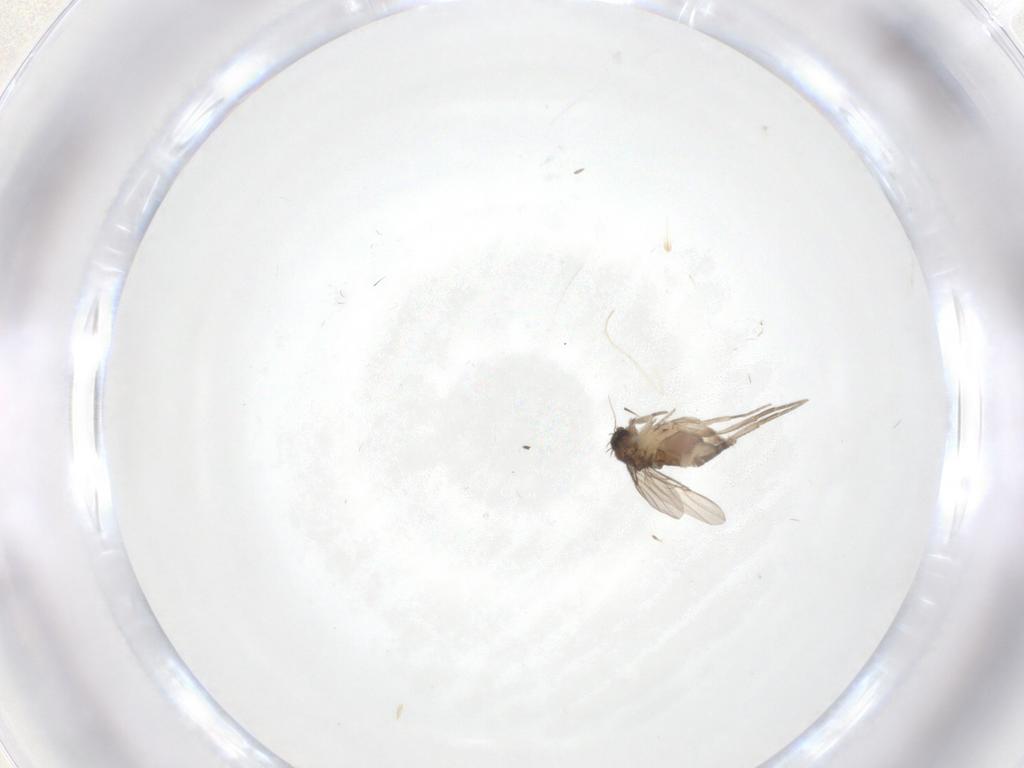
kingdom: Animalia
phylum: Arthropoda
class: Insecta
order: Diptera
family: Phoridae
